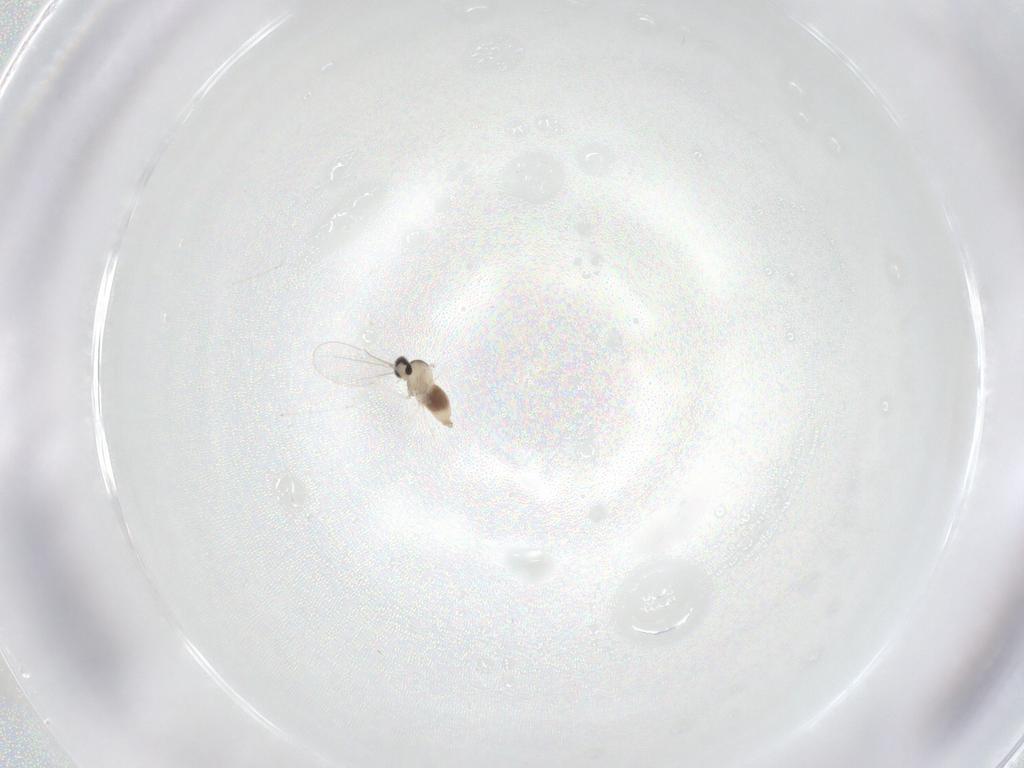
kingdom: Animalia
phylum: Arthropoda
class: Insecta
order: Diptera
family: Cecidomyiidae
